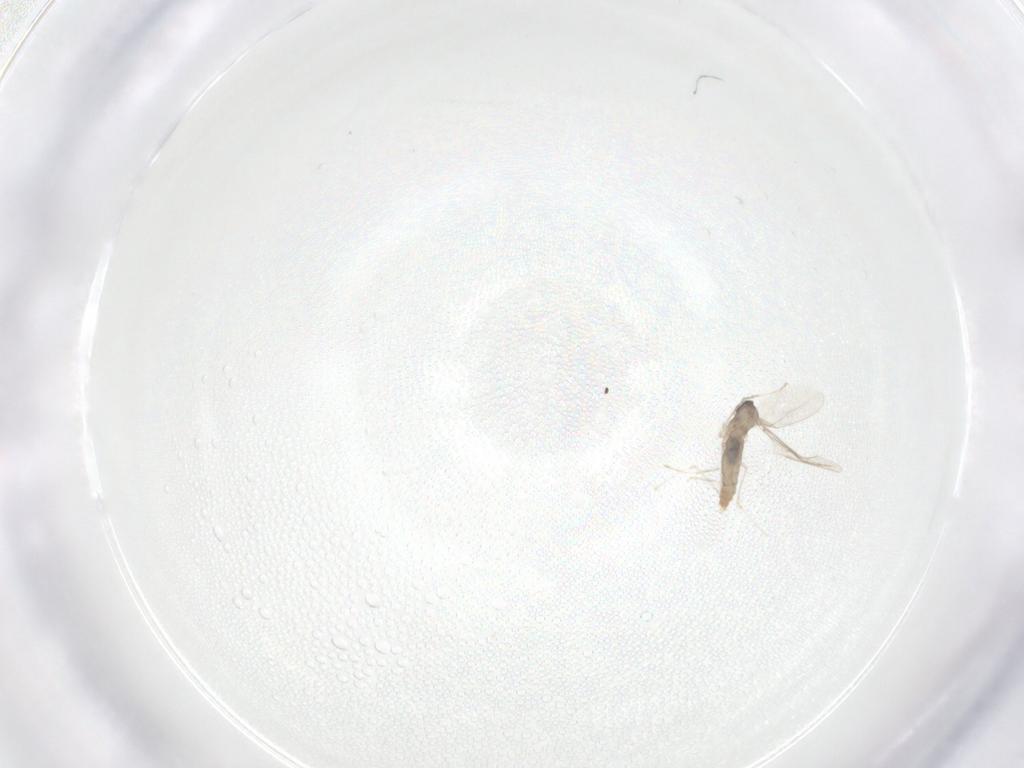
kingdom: Animalia
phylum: Arthropoda
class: Insecta
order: Diptera
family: Cecidomyiidae
